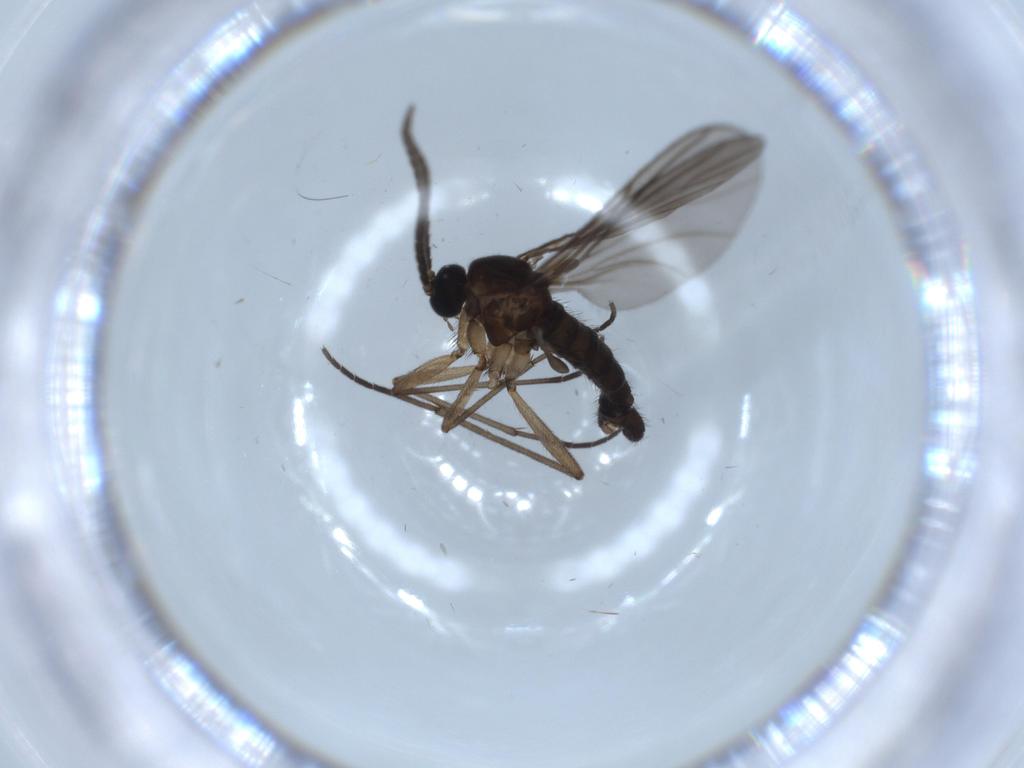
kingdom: Animalia
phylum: Arthropoda
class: Insecta
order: Diptera
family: Sciaridae
